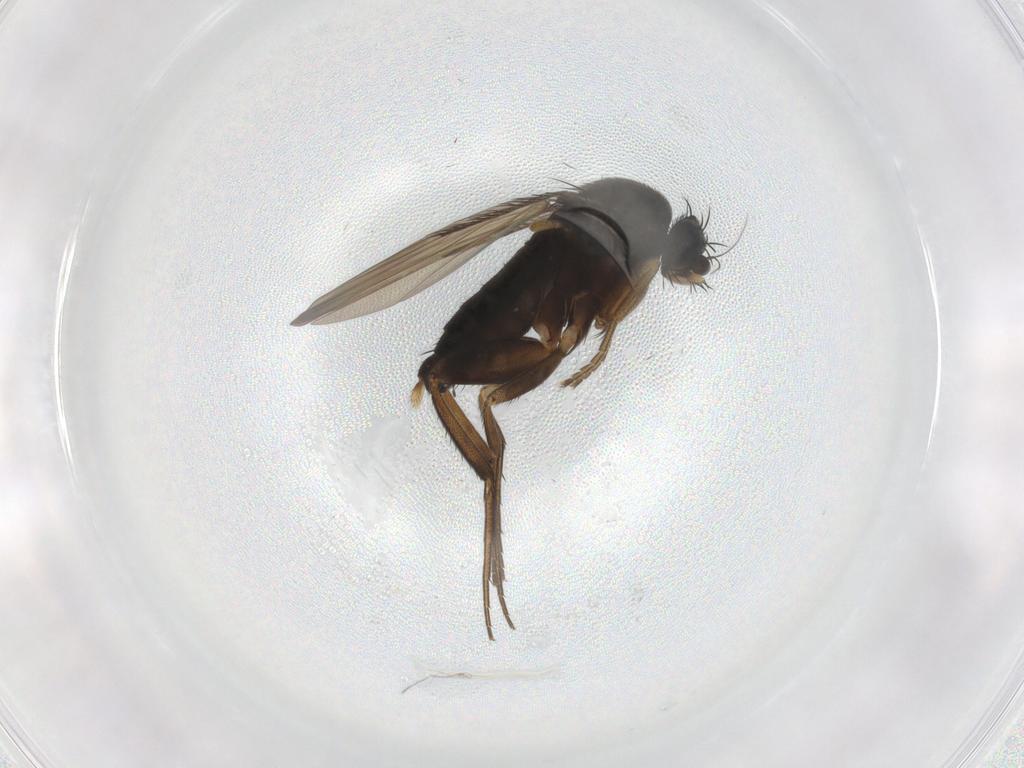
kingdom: Animalia
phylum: Arthropoda
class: Insecta
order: Diptera
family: Phoridae
